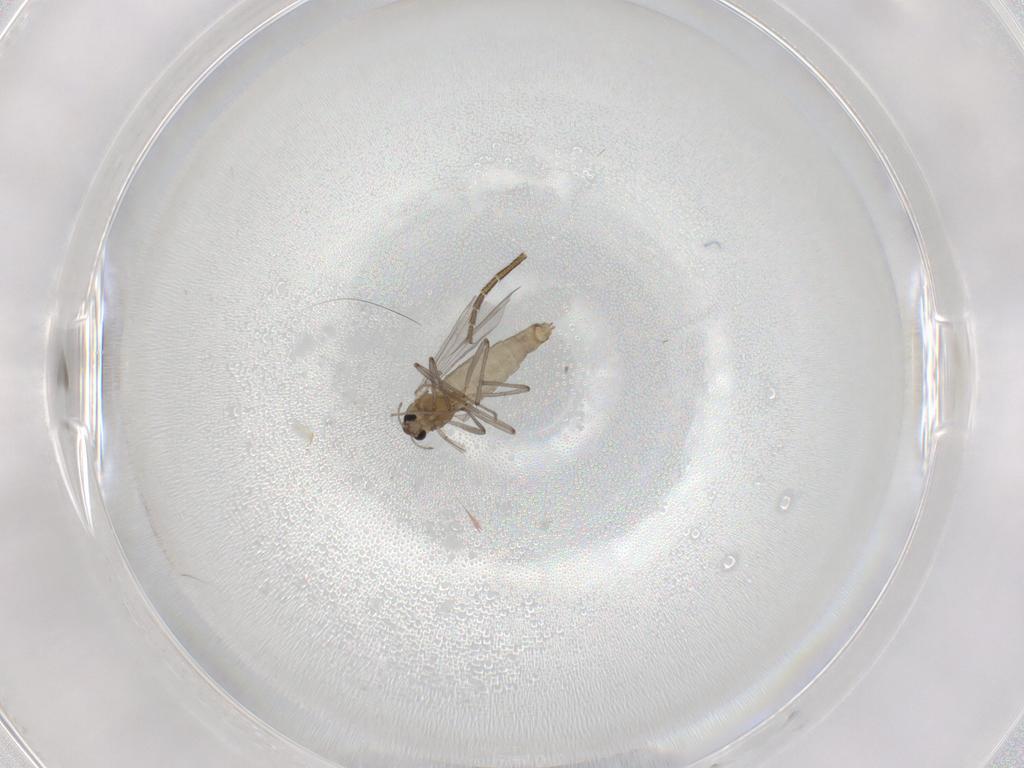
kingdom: Animalia
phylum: Arthropoda
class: Insecta
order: Diptera
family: Chironomidae
